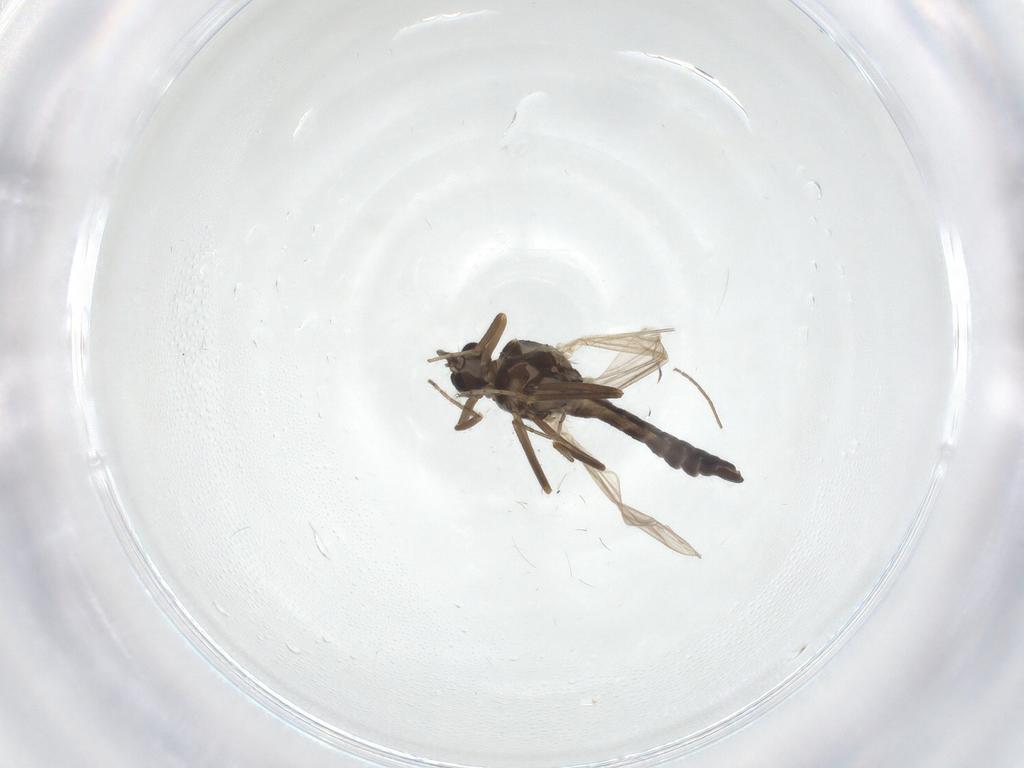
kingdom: Animalia
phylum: Arthropoda
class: Insecta
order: Diptera
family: Ceratopogonidae
